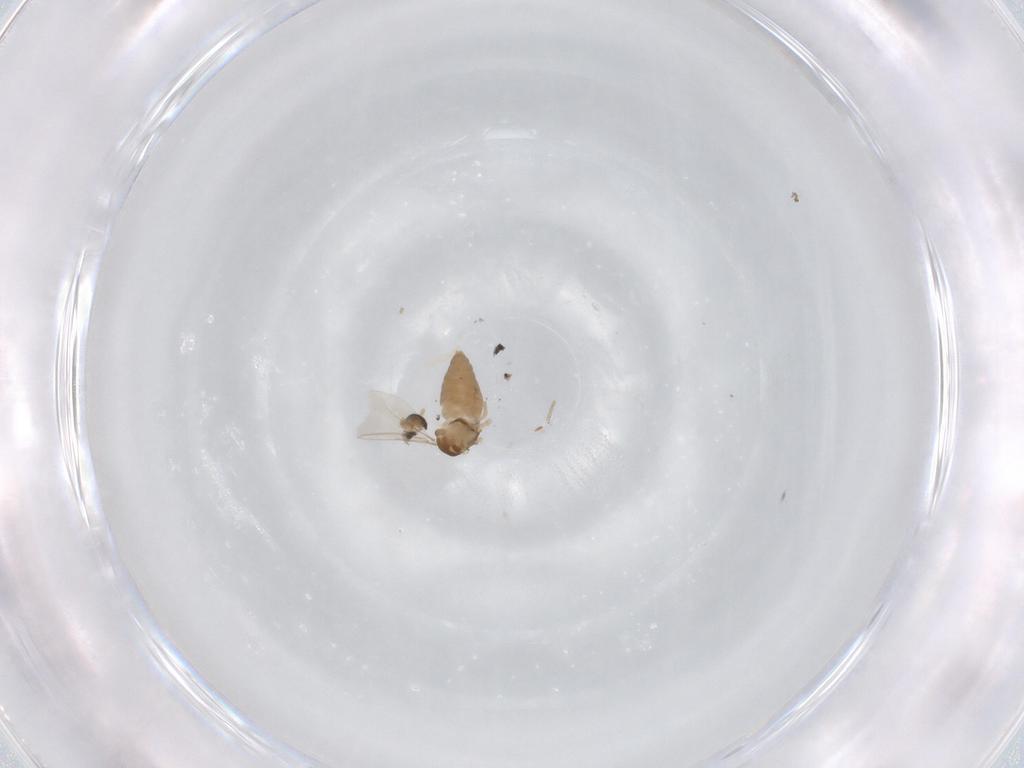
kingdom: Animalia
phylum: Arthropoda
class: Insecta
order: Diptera
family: Cecidomyiidae
